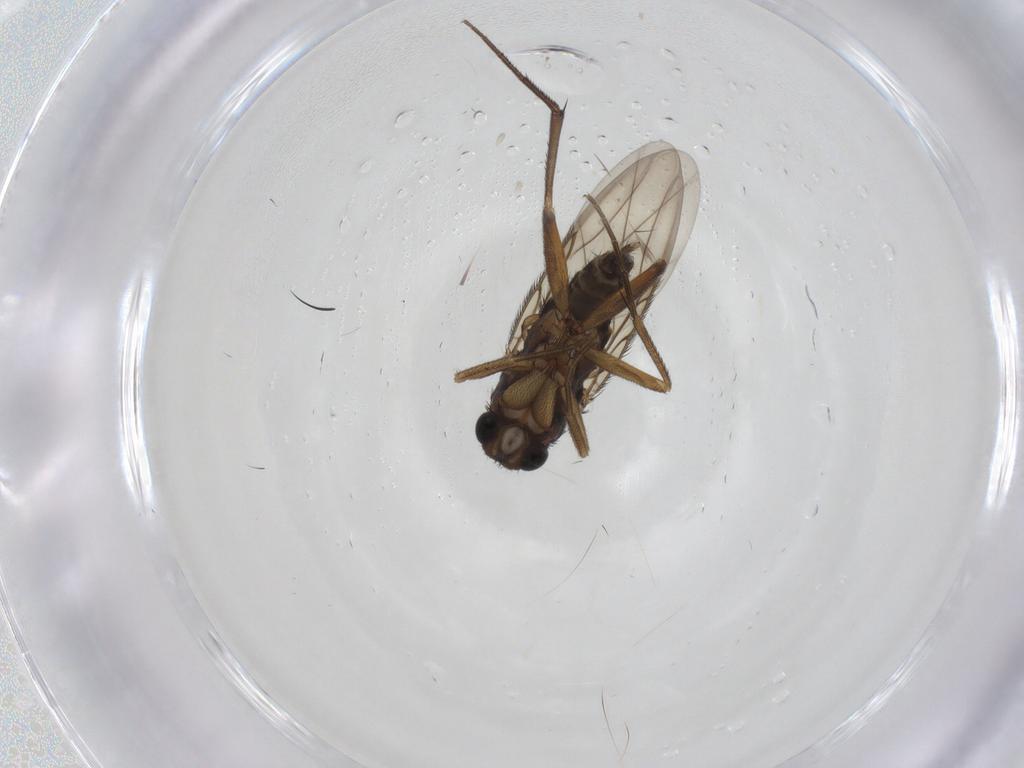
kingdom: Animalia
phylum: Arthropoda
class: Insecta
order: Diptera
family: Phoridae
